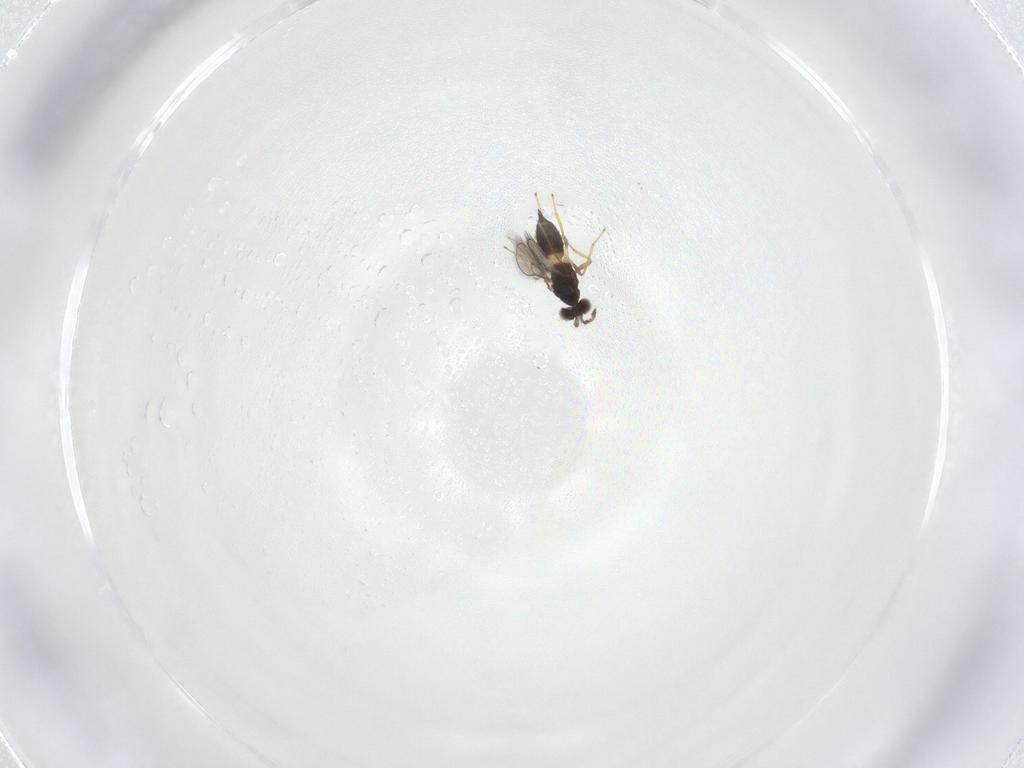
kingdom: Animalia
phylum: Arthropoda
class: Insecta
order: Hymenoptera
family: Eulophidae
